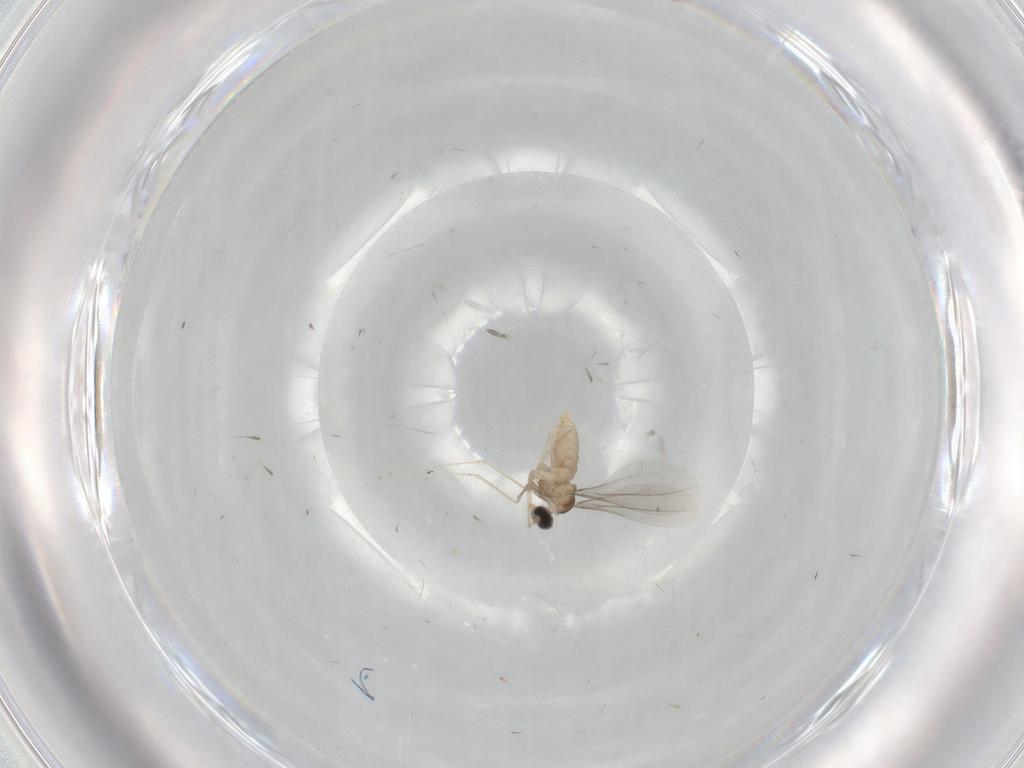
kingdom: Animalia
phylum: Arthropoda
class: Insecta
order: Diptera
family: Cecidomyiidae
